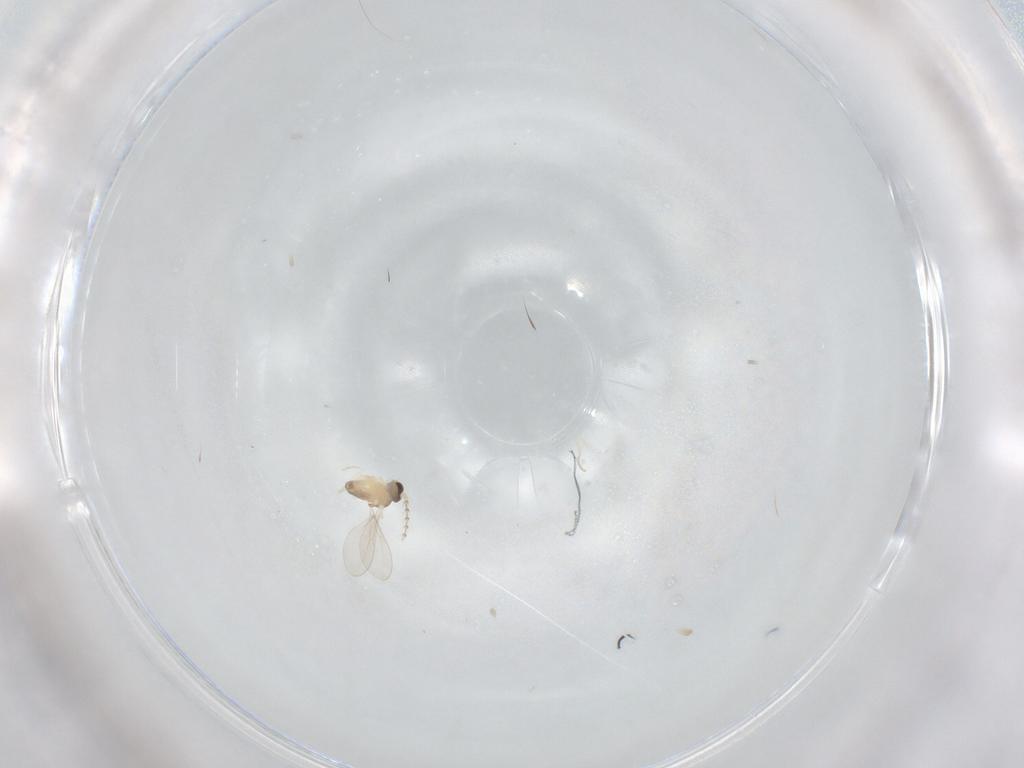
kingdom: Animalia
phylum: Arthropoda
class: Insecta
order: Diptera
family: Cecidomyiidae
